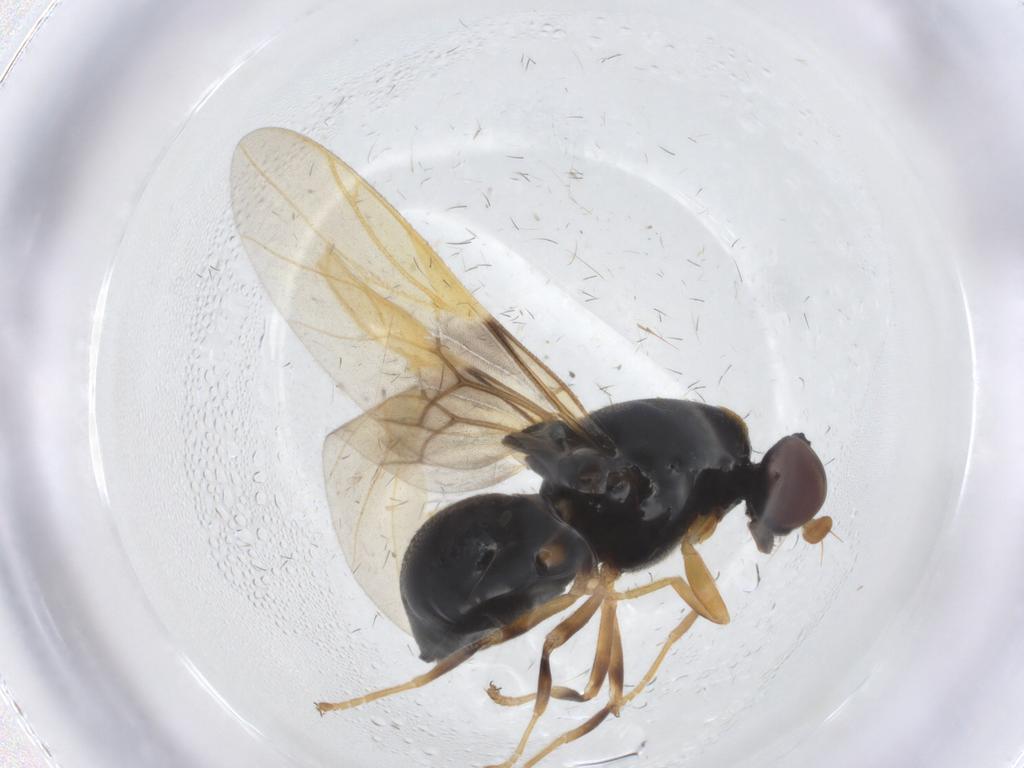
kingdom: Animalia
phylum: Arthropoda
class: Insecta
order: Diptera
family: Stratiomyidae
